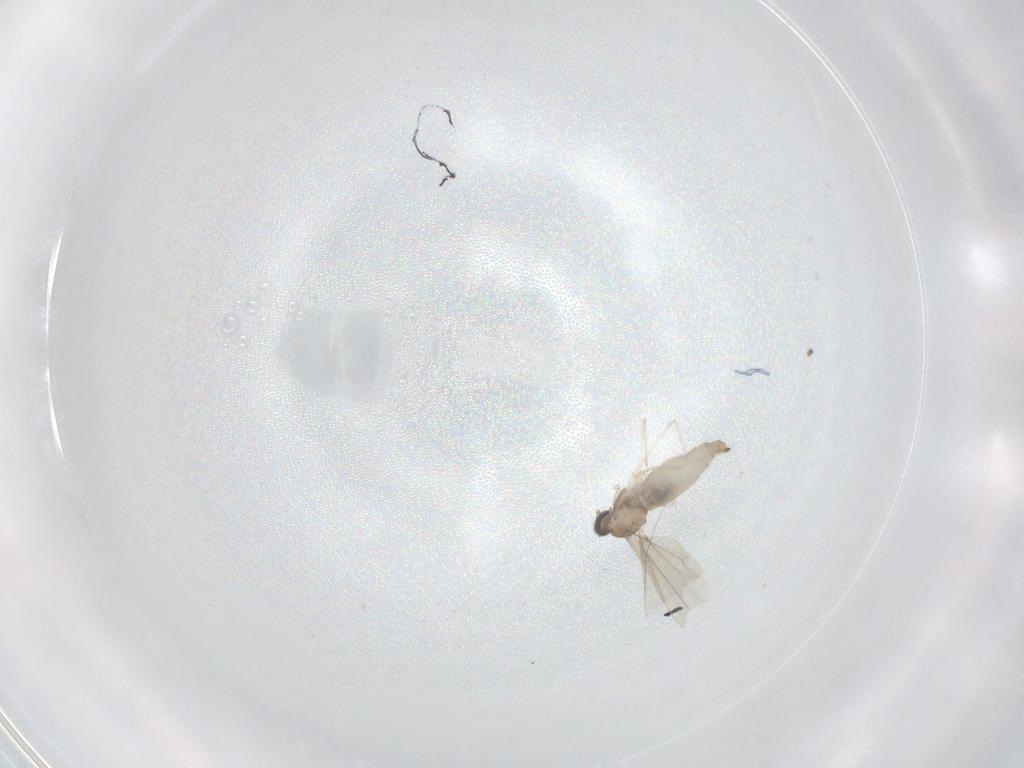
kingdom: Animalia
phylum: Arthropoda
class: Insecta
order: Diptera
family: Cecidomyiidae
